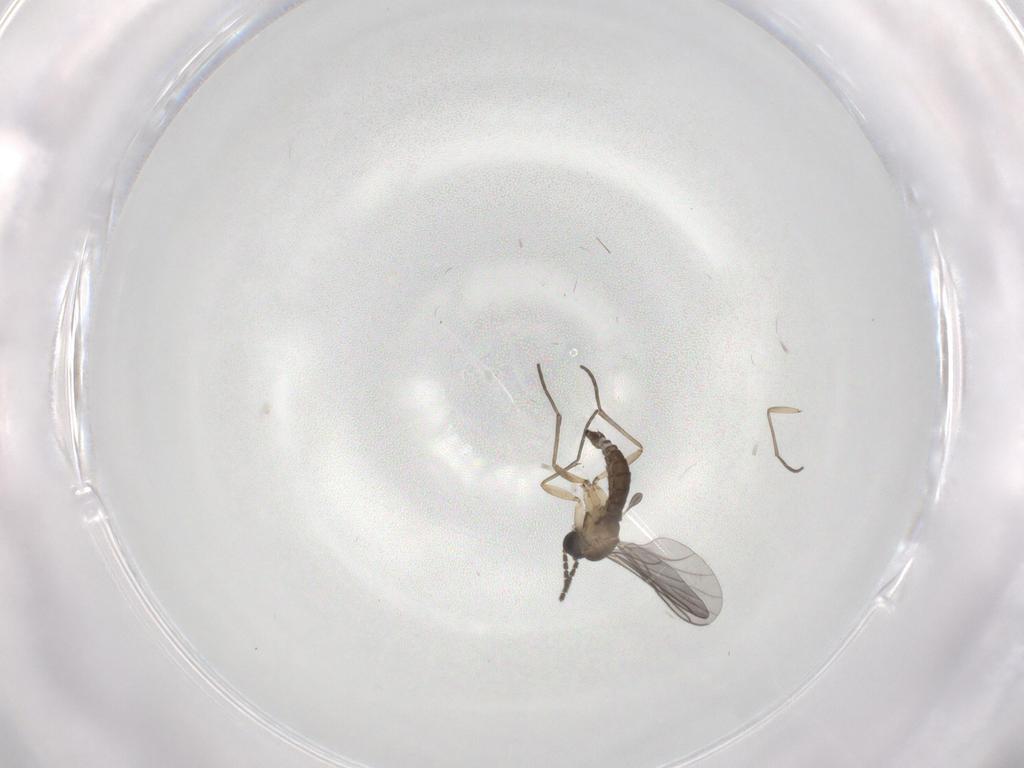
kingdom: Animalia
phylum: Arthropoda
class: Insecta
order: Diptera
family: Sciaridae
